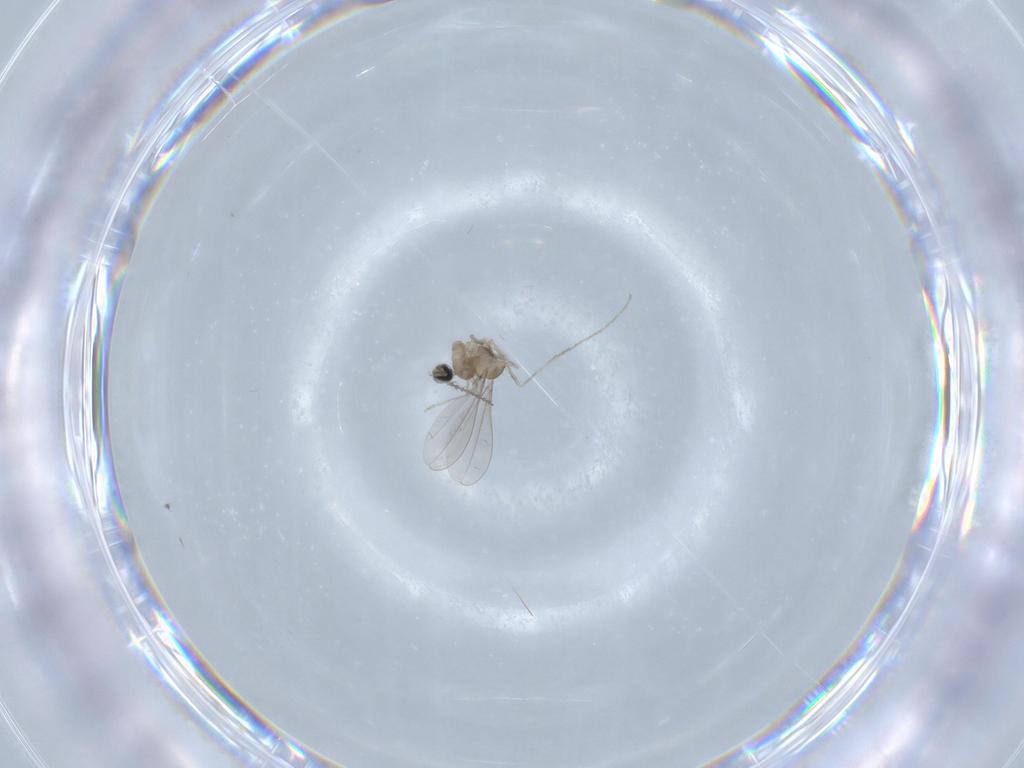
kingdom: Animalia
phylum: Arthropoda
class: Insecta
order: Diptera
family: Cecidomyiidae
